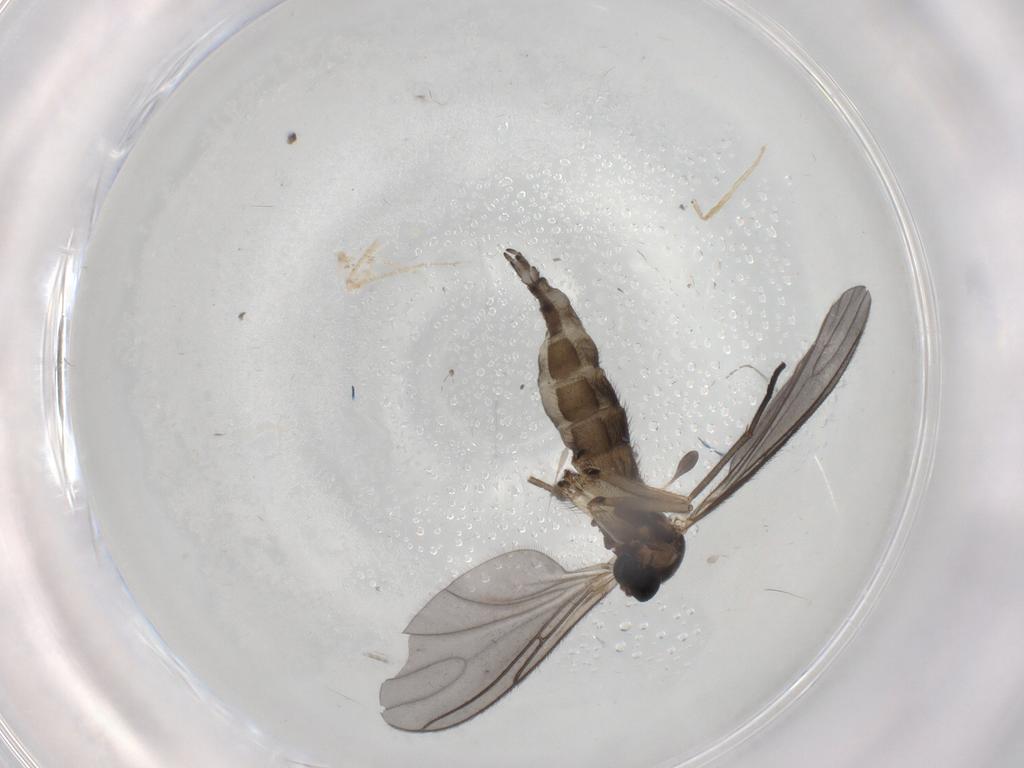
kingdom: Animalia
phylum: Arthropoda
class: Insecta
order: Diptera
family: Sciaridae
